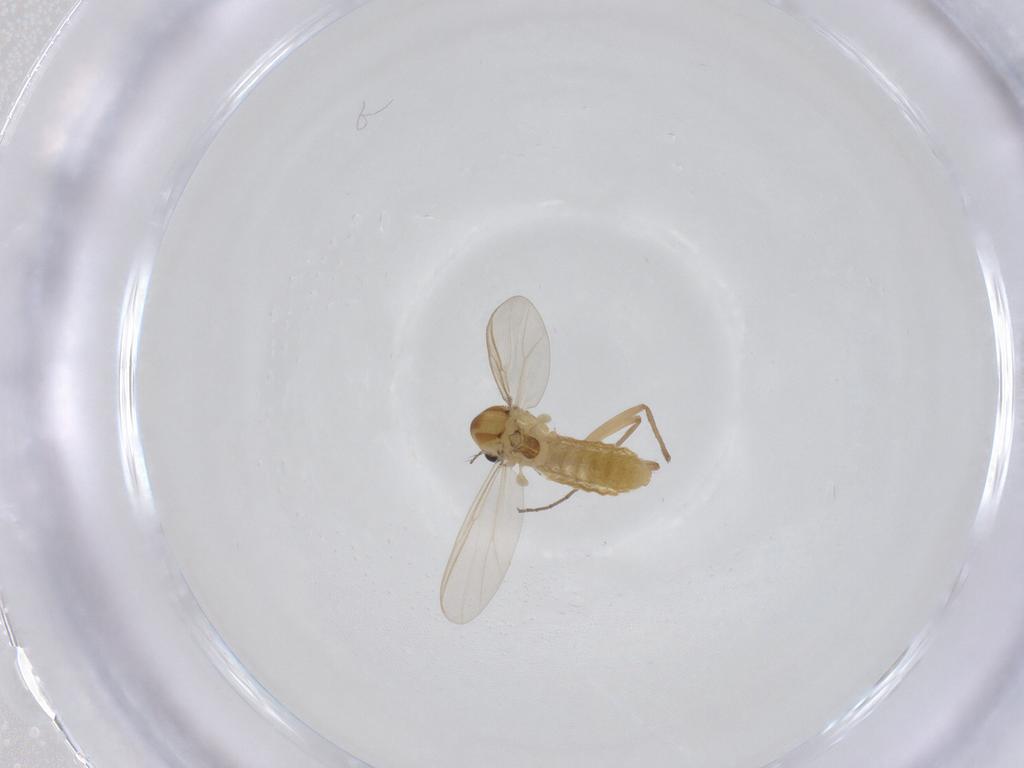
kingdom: Animalia
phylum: Arthropoda
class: Insecta
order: Diptera
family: Chironomidae
